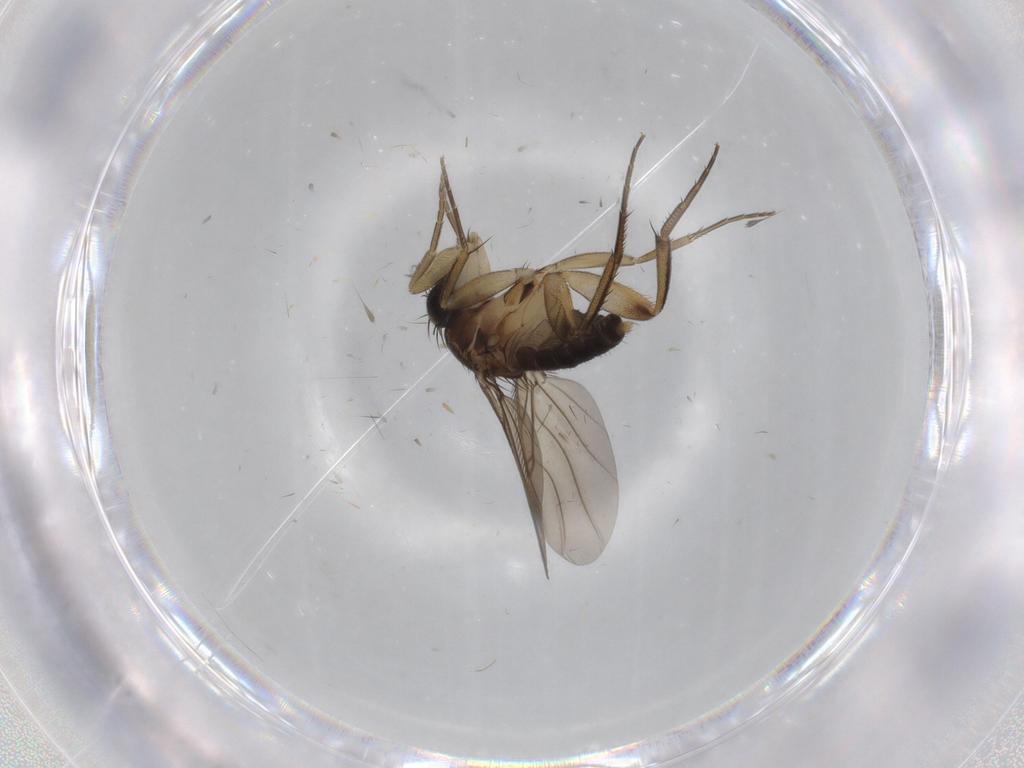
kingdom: Animalia
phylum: Arthropoda
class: Insecta
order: Diptera
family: Phoridae
